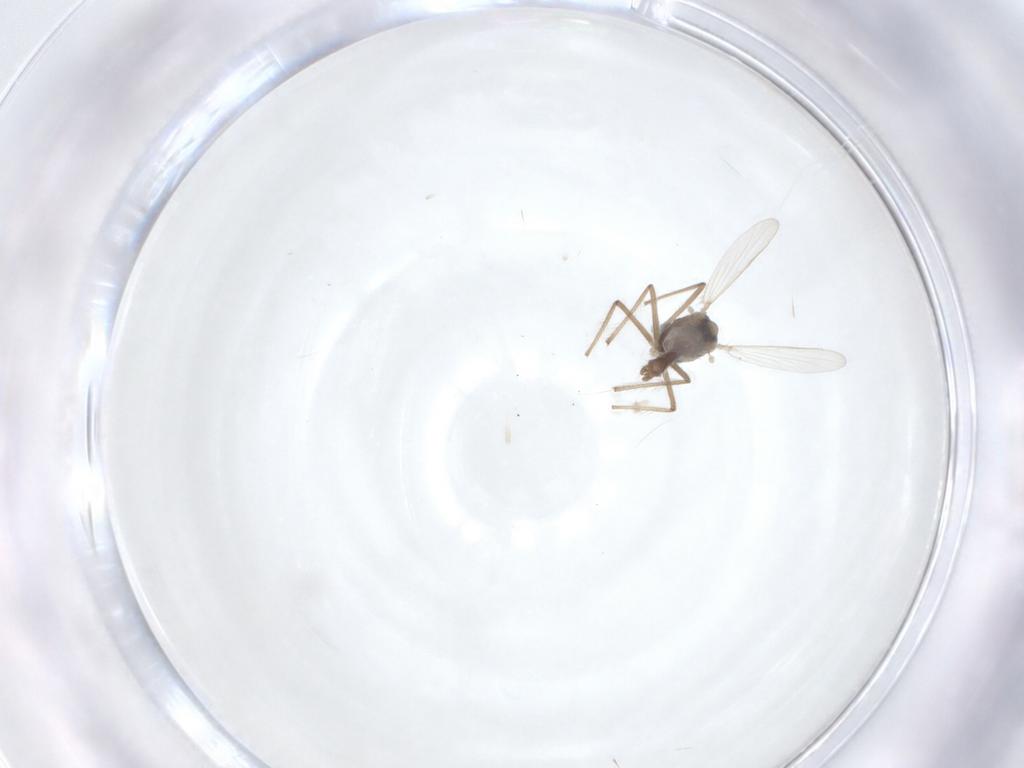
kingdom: Animalia
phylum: Arthropoda
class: Insecta
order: Diptera
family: Chironomidae
